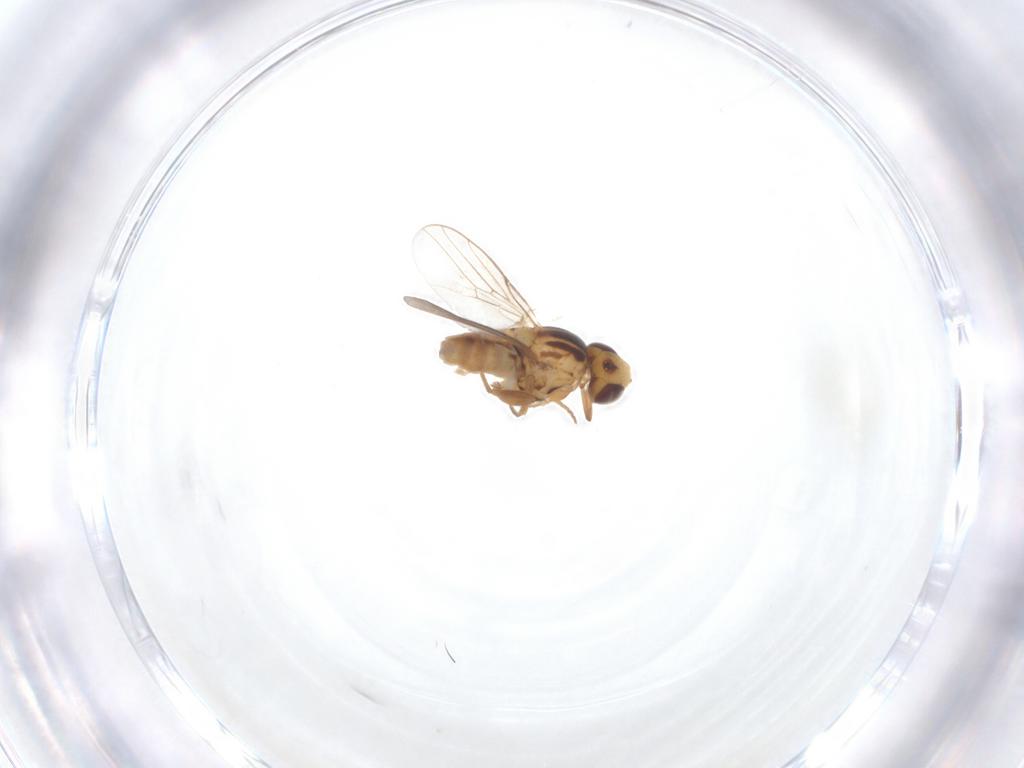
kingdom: Animalia
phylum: Arthropoda
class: Insecta
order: Diptera
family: Chloropidae
